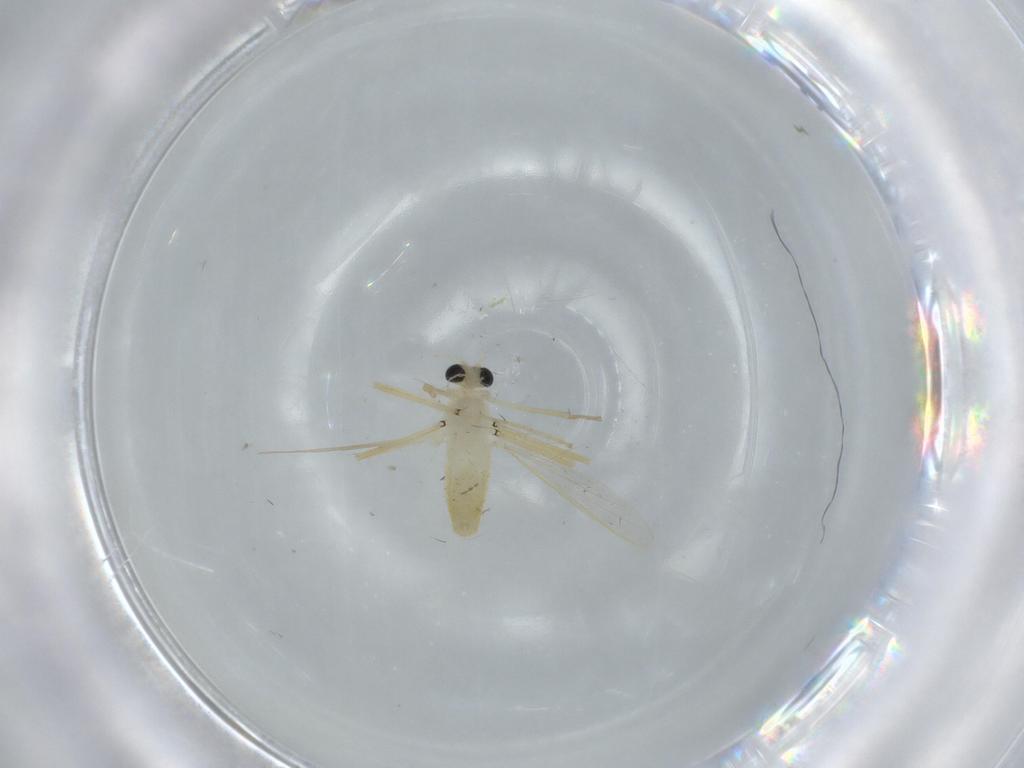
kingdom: Animalia
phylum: Arthropoda
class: Insecta
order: Diptera
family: Chironomidae
